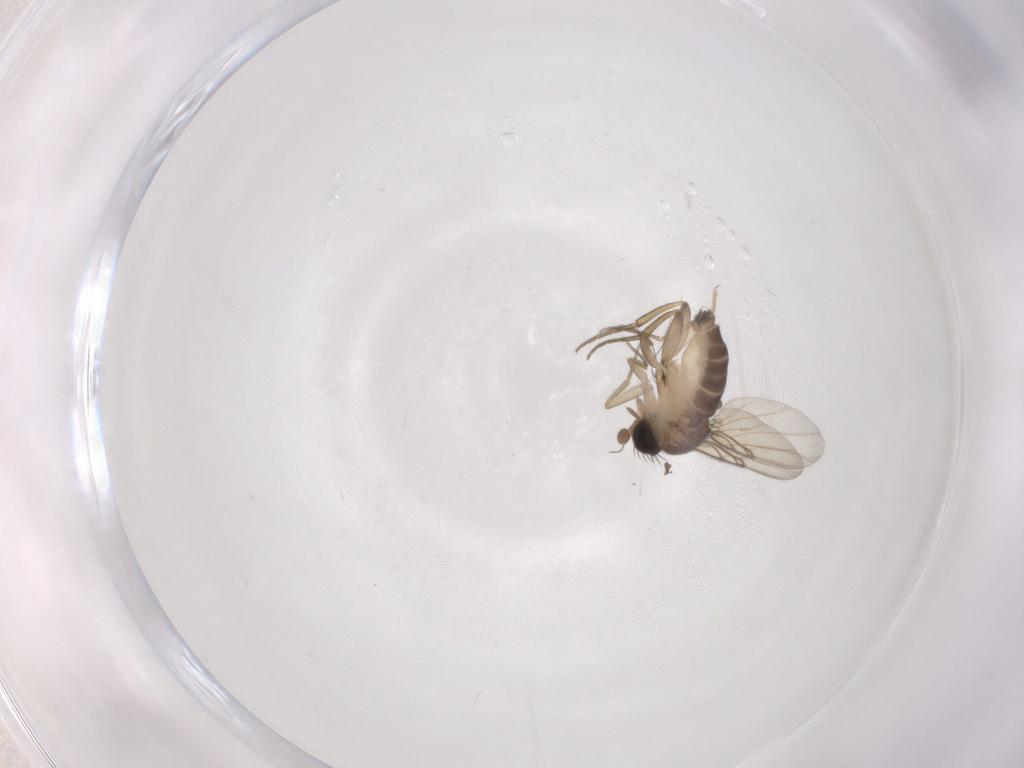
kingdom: Animalia
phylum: Arthropoda
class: Insecta
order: Diptera
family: Phoridae
